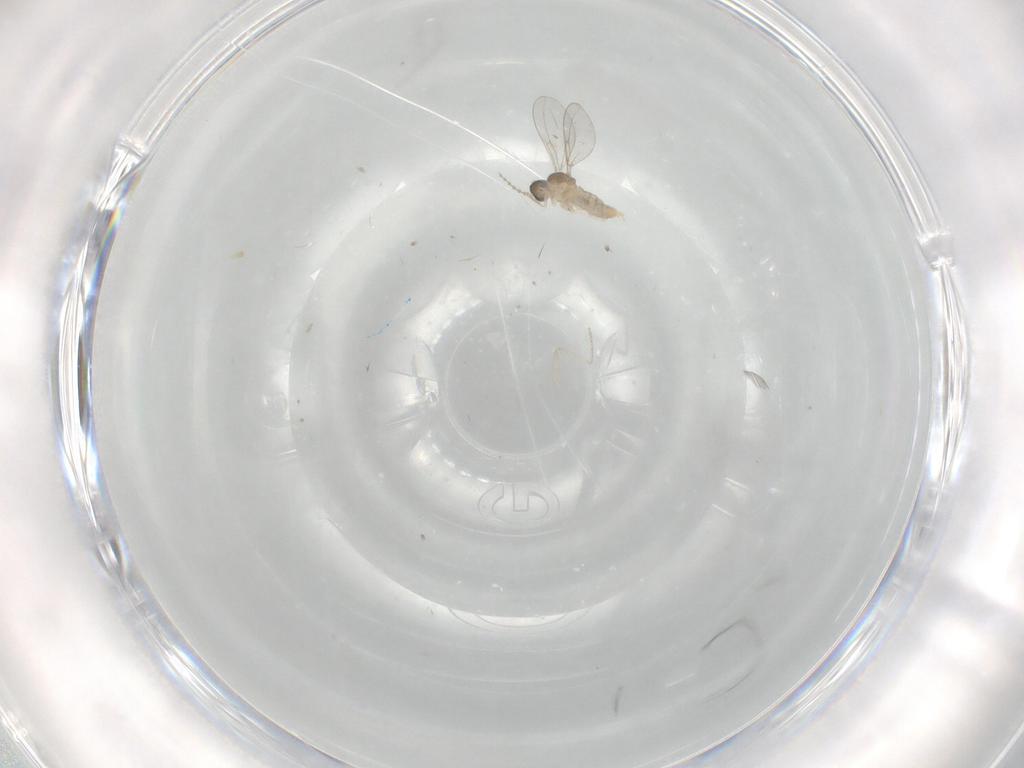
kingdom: Animalia
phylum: Arthropoda
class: Insecta
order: Diptera
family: Cecidomyiidae
